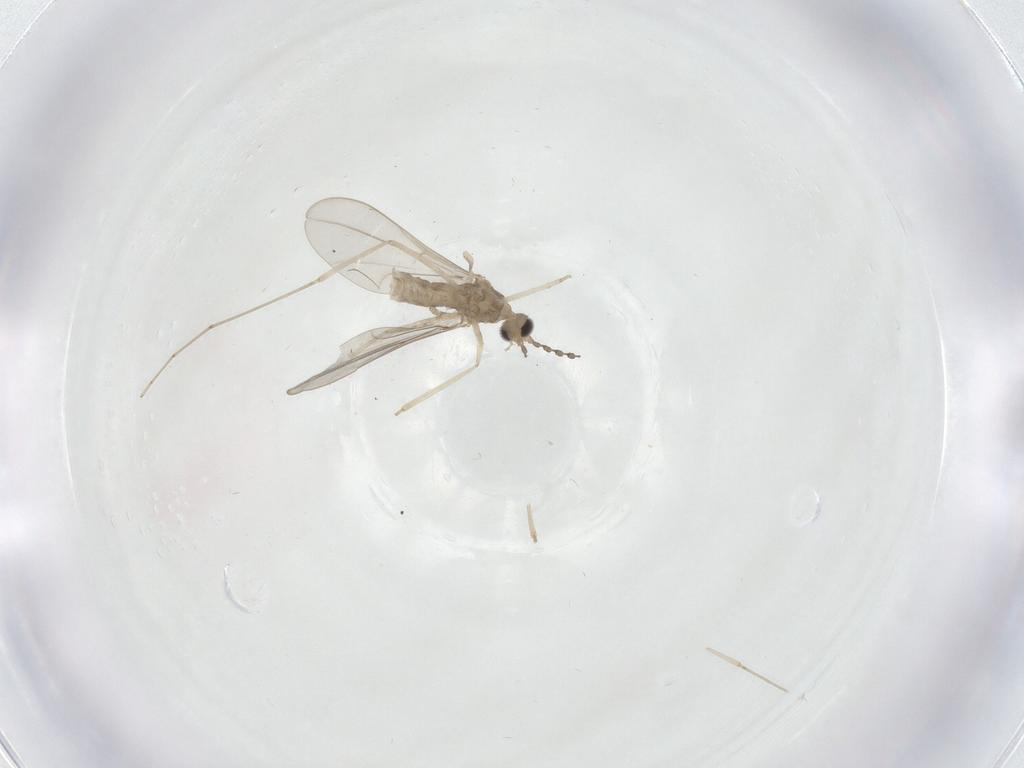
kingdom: Animalia
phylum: Arthropoda
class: Insecta
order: Diptera
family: Cecidomyiidae
